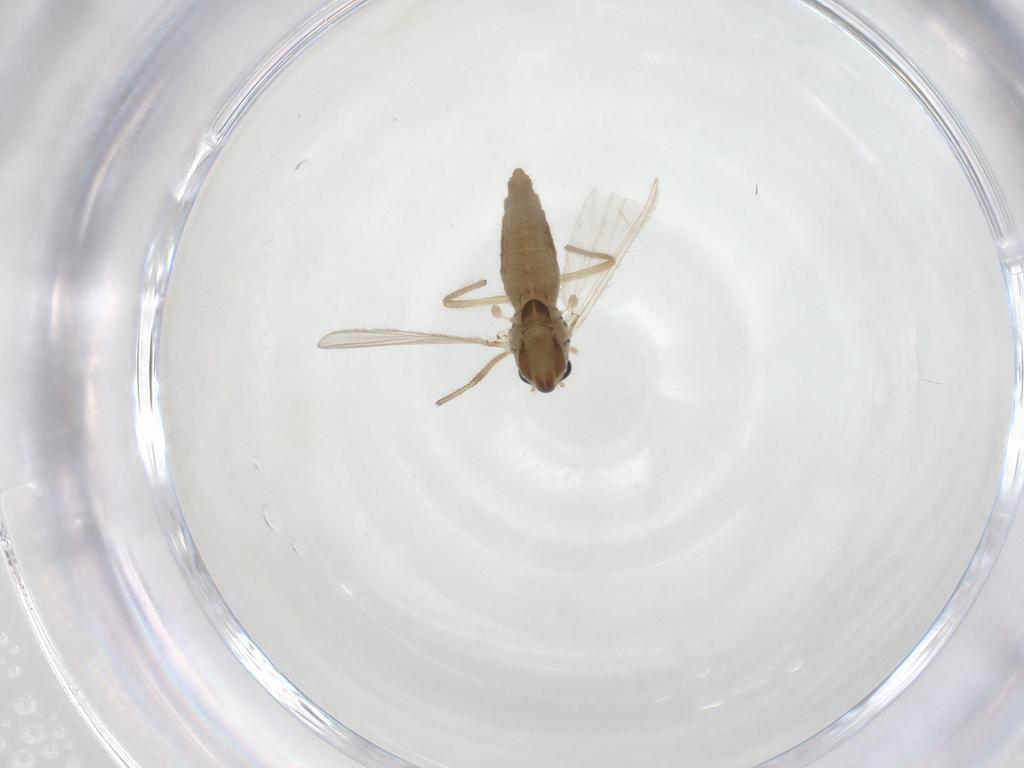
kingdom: Animalia
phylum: Arthropoda
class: Insecta
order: Diptera
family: Chironomidae
